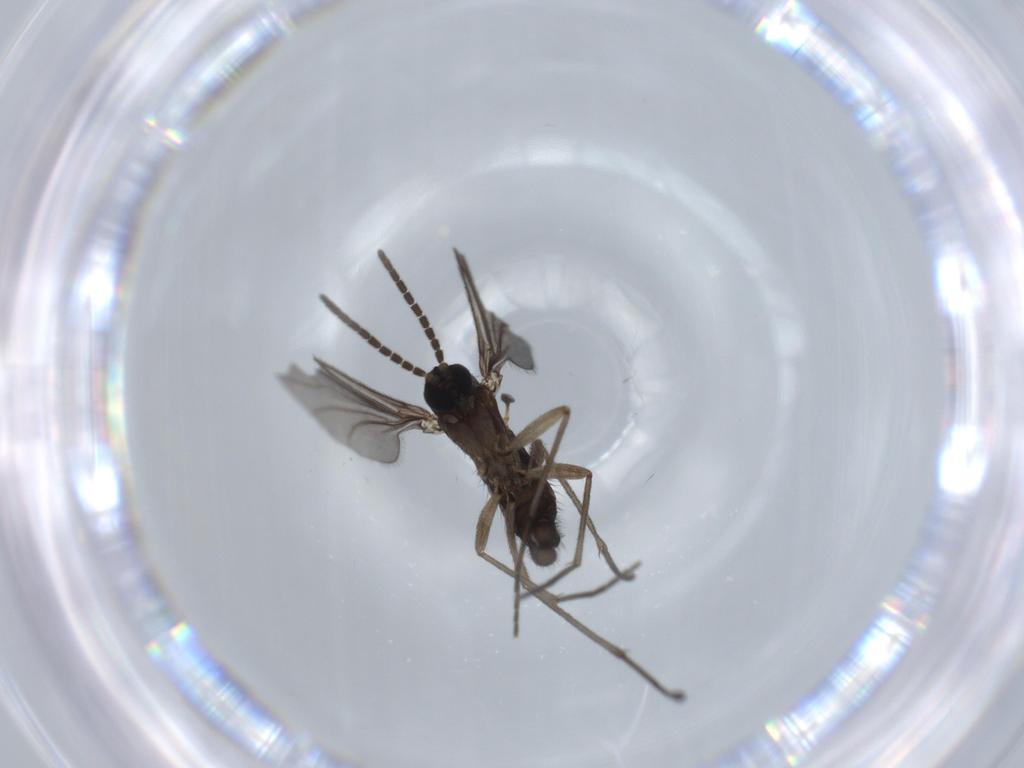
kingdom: Animalia
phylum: Arthropoda
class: Insecta
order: Diptera
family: Sciaridae
